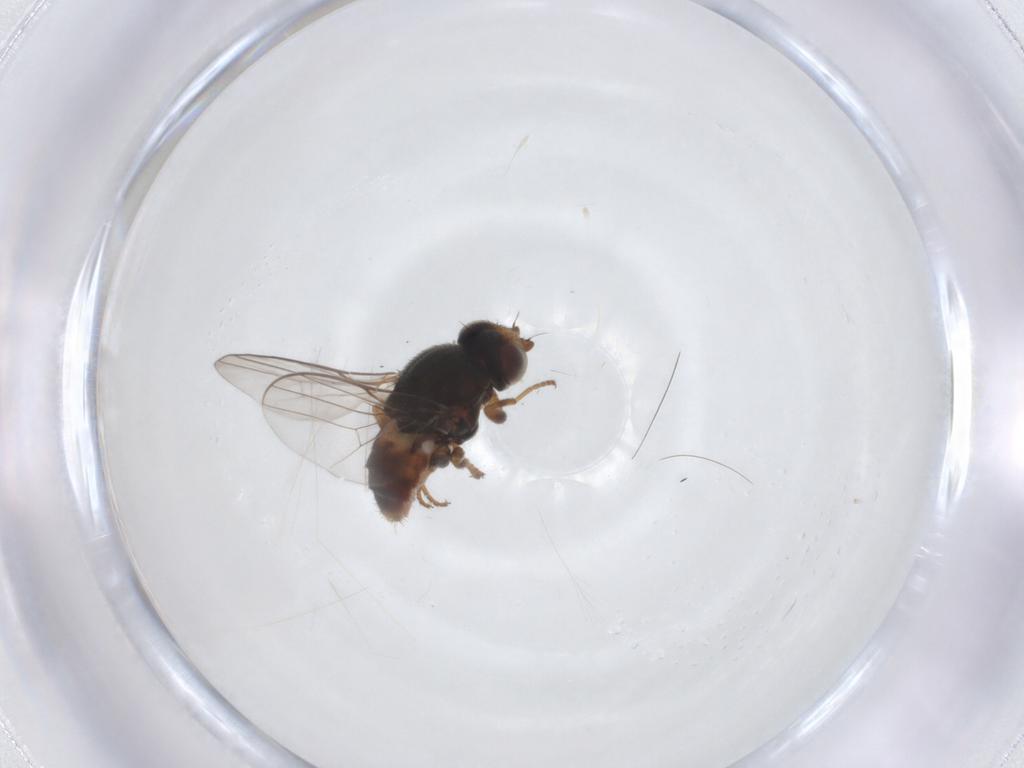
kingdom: Animalia
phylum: Arthropoda
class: Insecta
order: Diptera
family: Chloropidae
